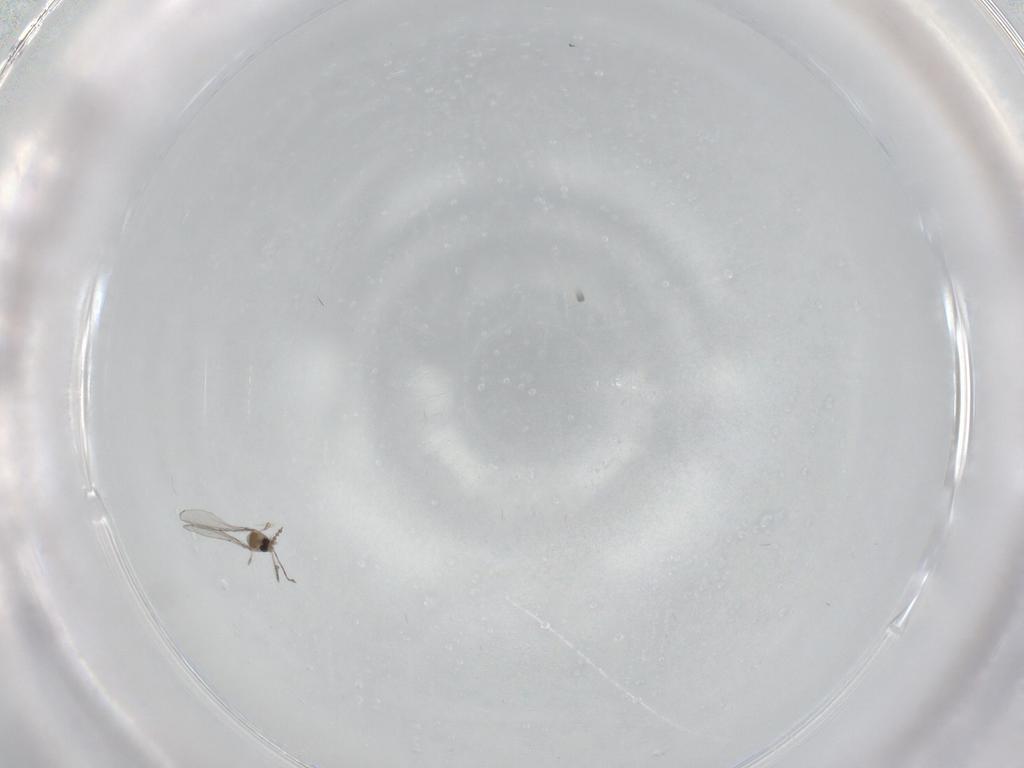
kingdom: Animalia
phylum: Arthropoda
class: Insecta
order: Diptera
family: Cecidomyiidae
